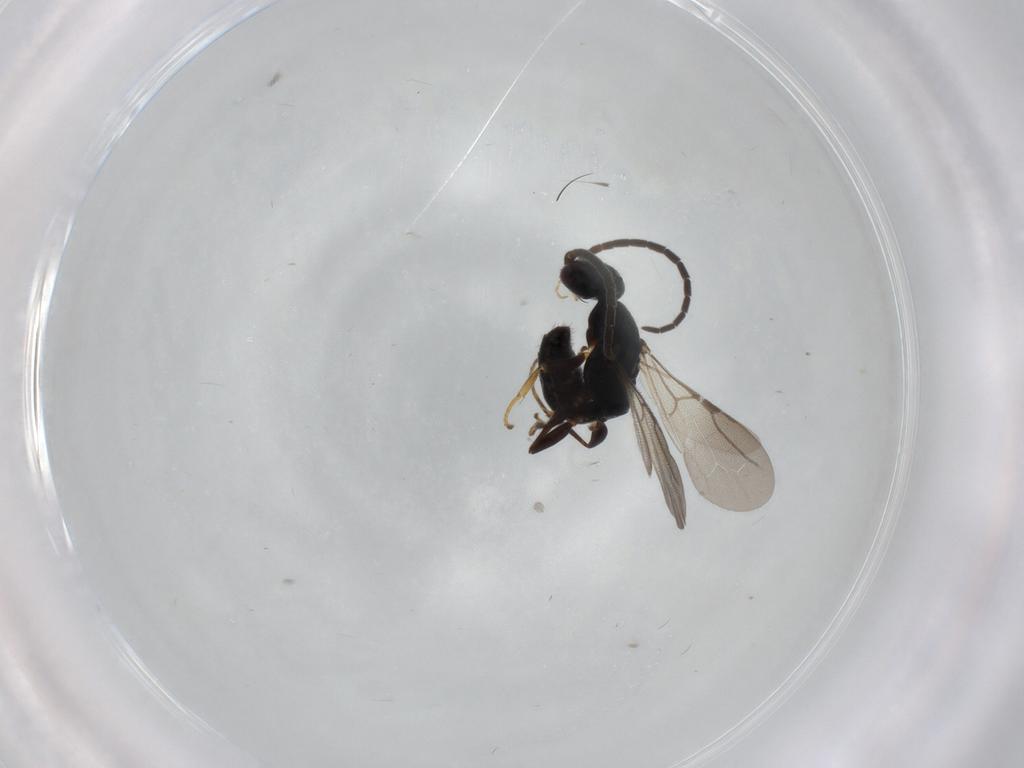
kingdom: Animalia
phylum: Arthropoda
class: Insecta
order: Hymenoptera
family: Bethylidae
